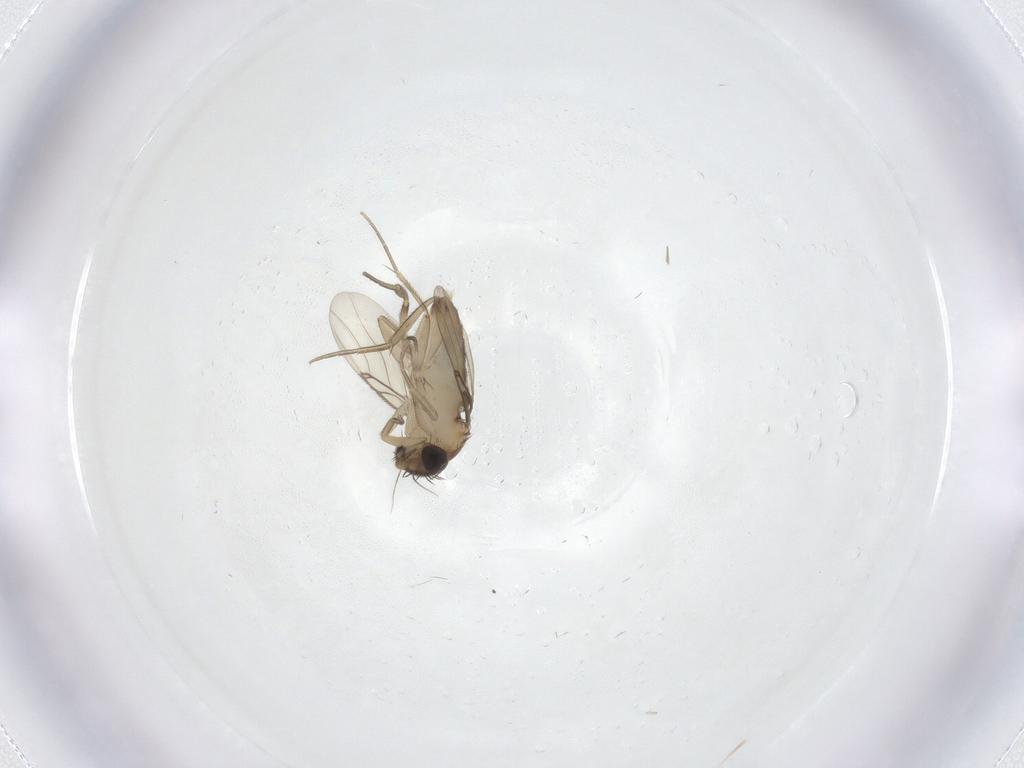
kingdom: Animalia
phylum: Arthropoda
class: Insecta
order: Diptera
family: Phoridae
